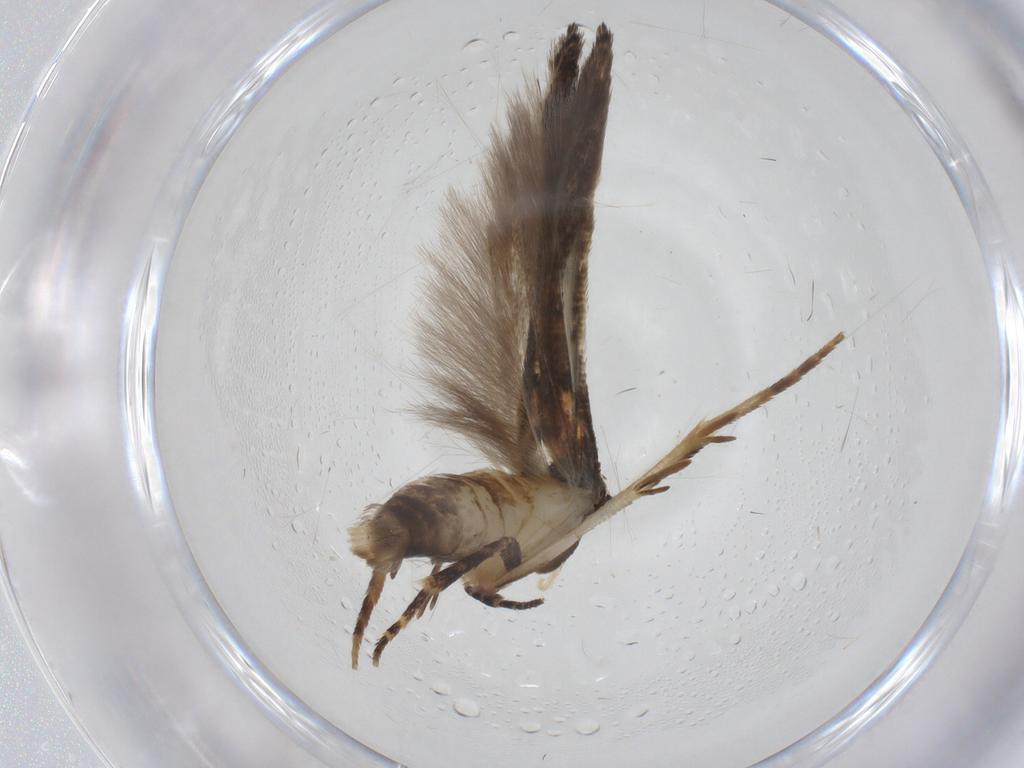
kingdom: Animalia
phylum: Arthropoda
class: Insecta
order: Lepidoptera
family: Elachistidae
